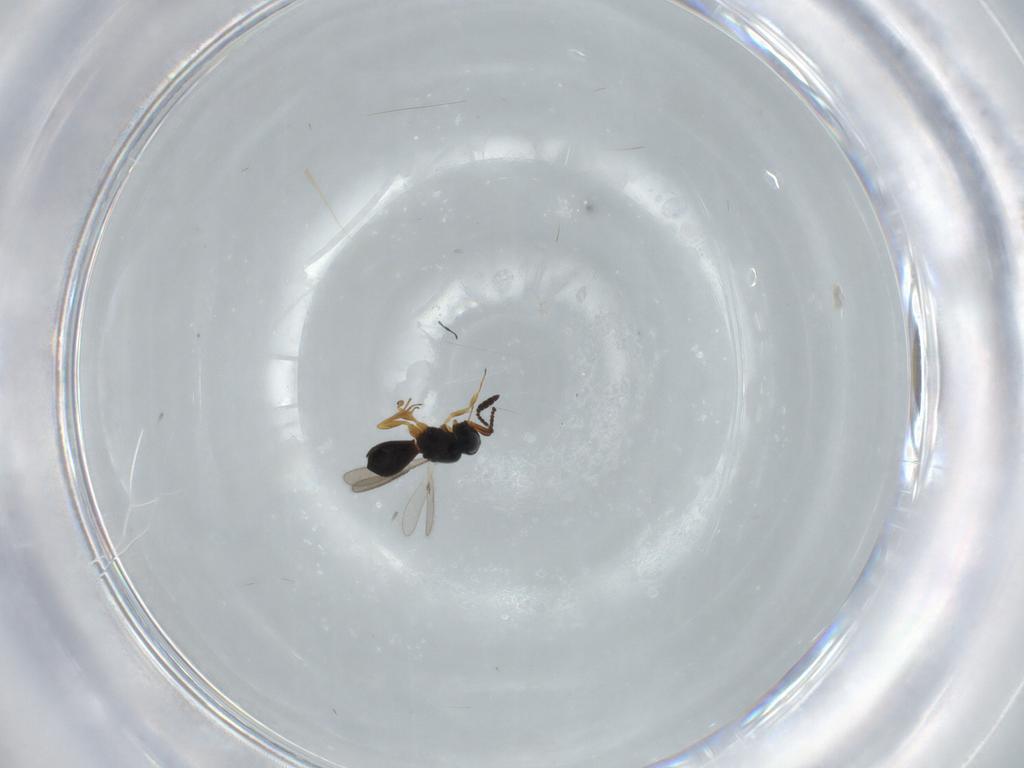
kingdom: Animalia
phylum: Arthropoda
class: Insecta
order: Hymenoptera
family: Scelionidae
